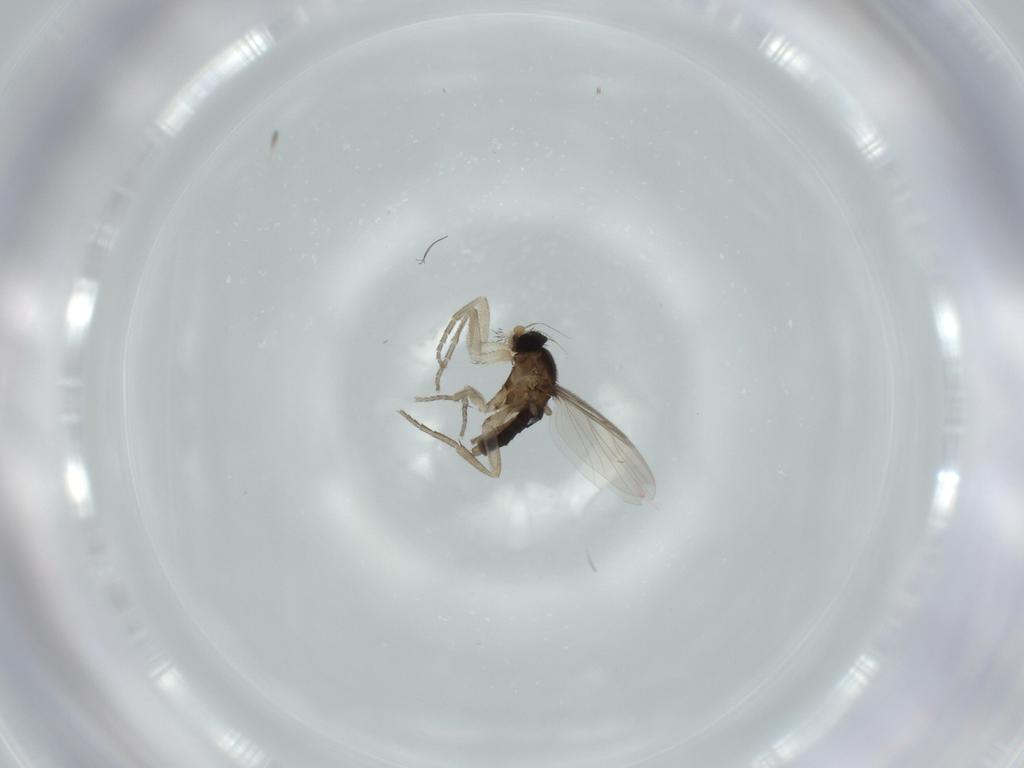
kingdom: Animalia
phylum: Arthropoda
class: Insecta
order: Diptera
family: Phoridae
